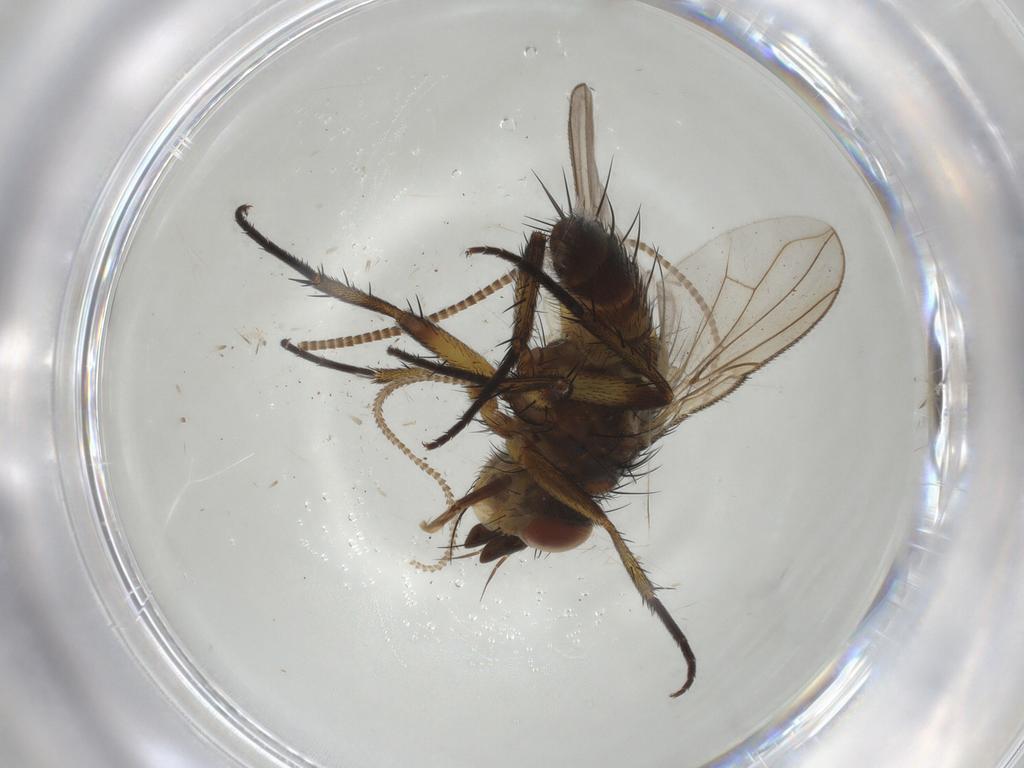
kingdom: Animalia
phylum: Arthropoda
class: Insecta
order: Diptera
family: Tachinidae
